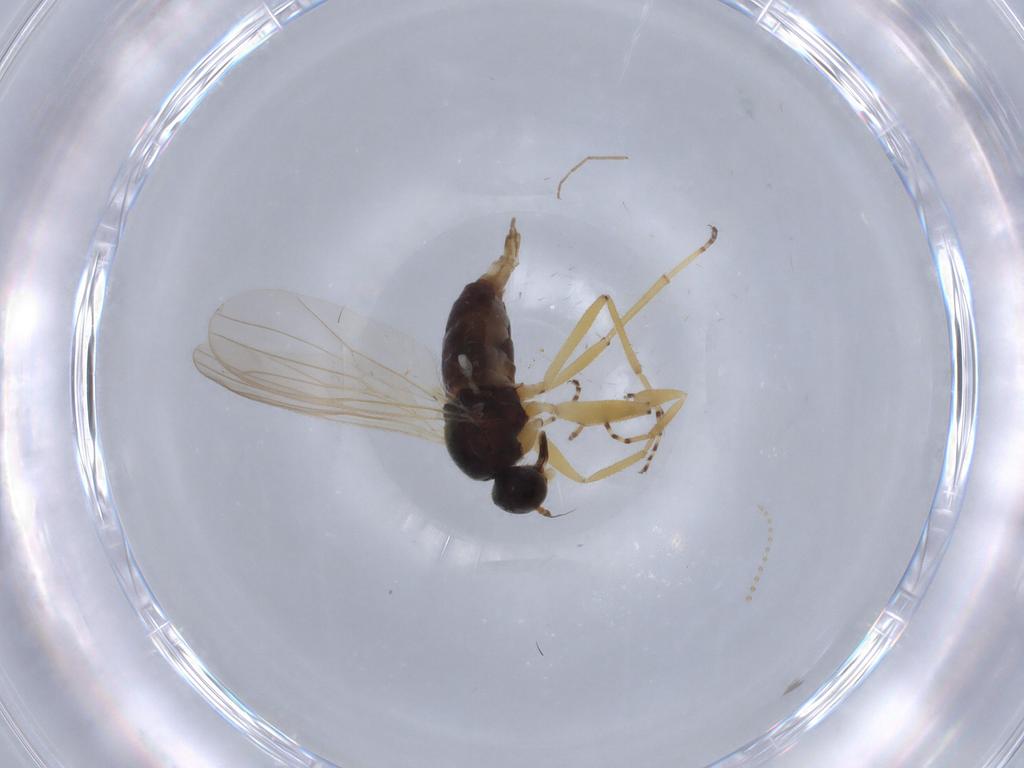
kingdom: Animalia
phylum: Arthropoda
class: Insecta
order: Diptera
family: Hybotidae
